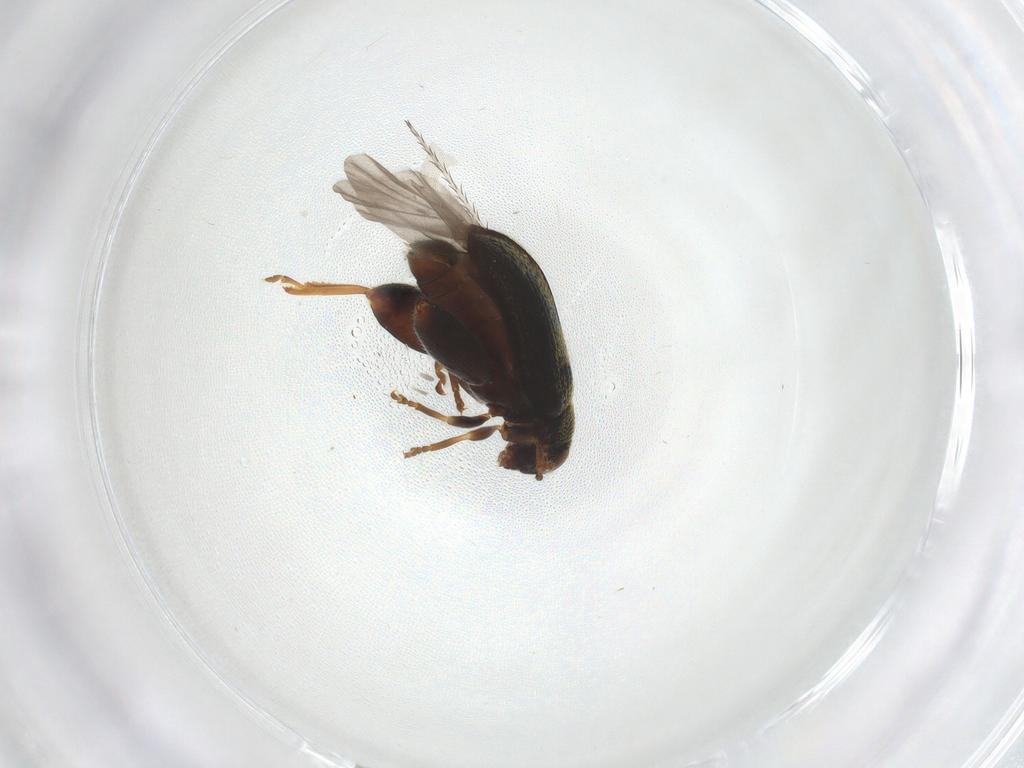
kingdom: Animalia
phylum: Arthropoda
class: Insecta
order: Coleoptera
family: Chrysomelidae
